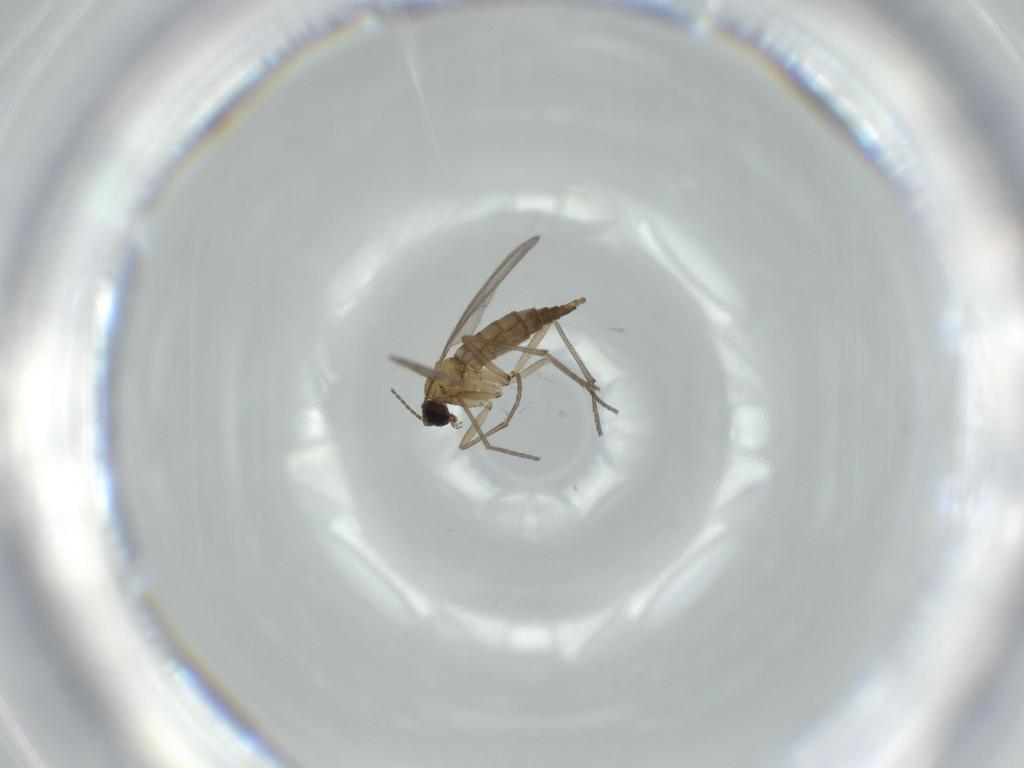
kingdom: Animalia
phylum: Arthropoda
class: Insecta
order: Diptera
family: Sciaridae
